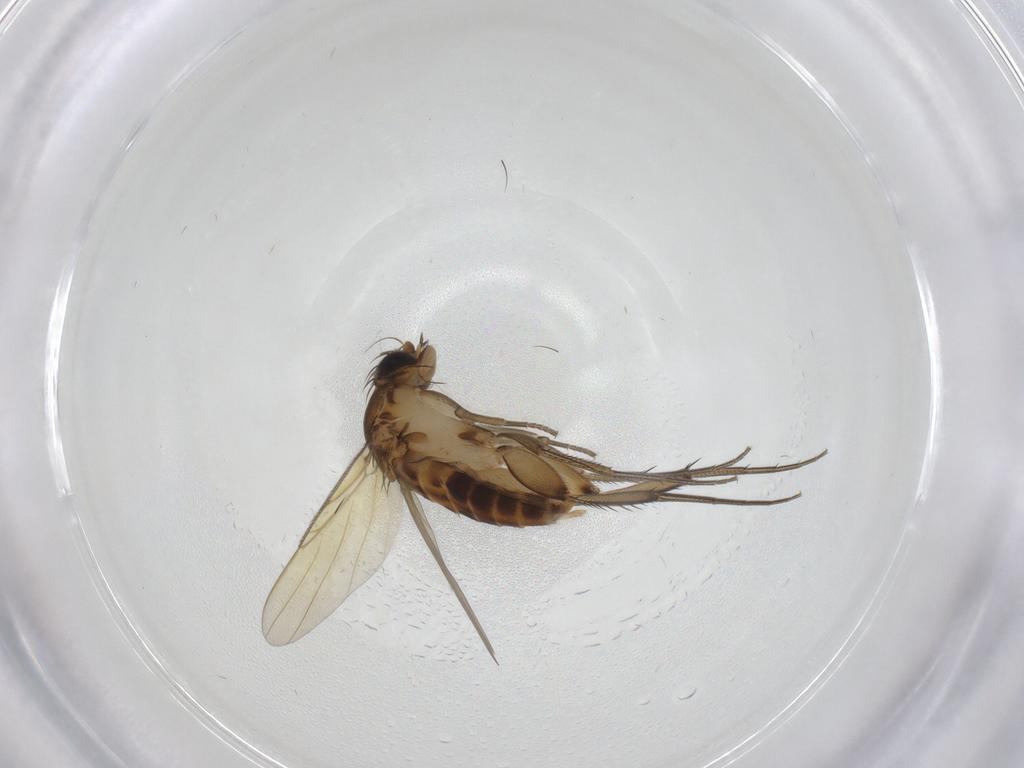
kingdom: Animalia
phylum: Arthropoda
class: Insecta
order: Diptera
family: Phoridae
